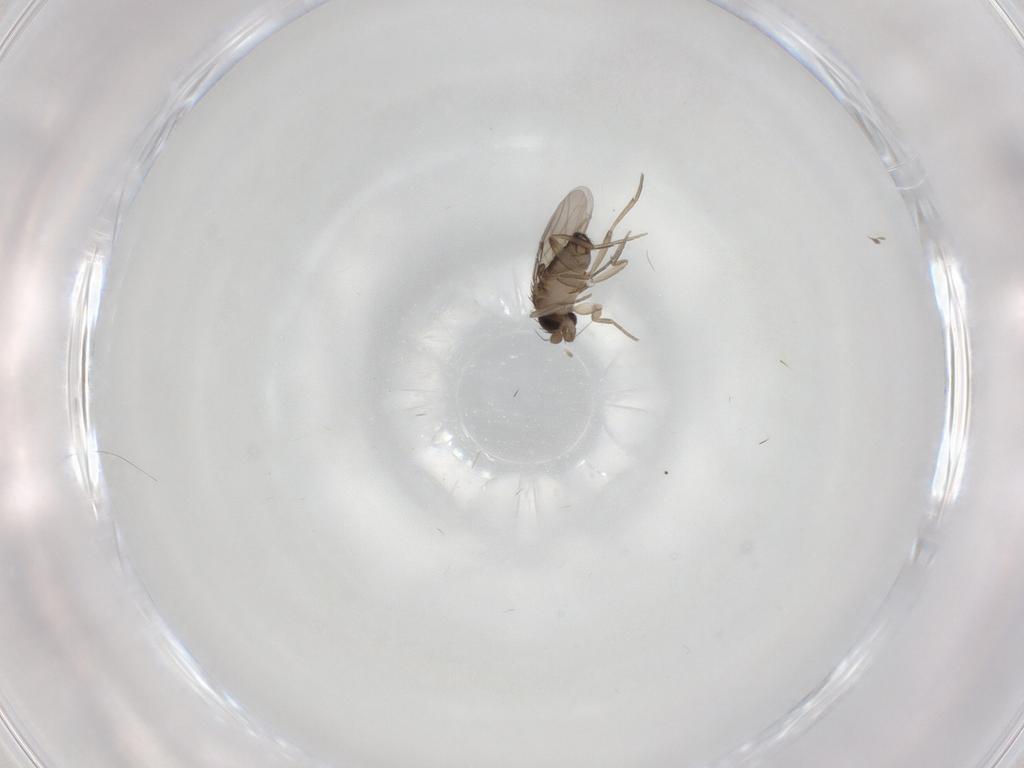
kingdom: Animalia
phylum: Arthropoda
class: Insecta
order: Diptera
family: Phoridae
